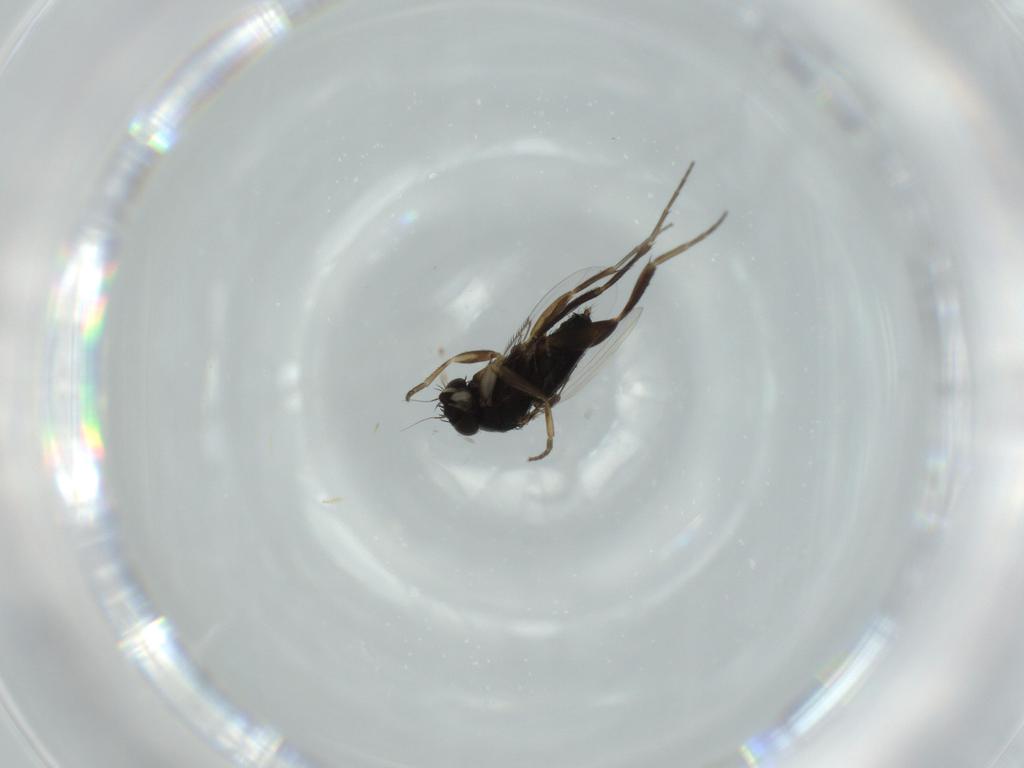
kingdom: Animalia
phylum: Arthropoda
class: Insecta
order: Diptera
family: Phoridae
